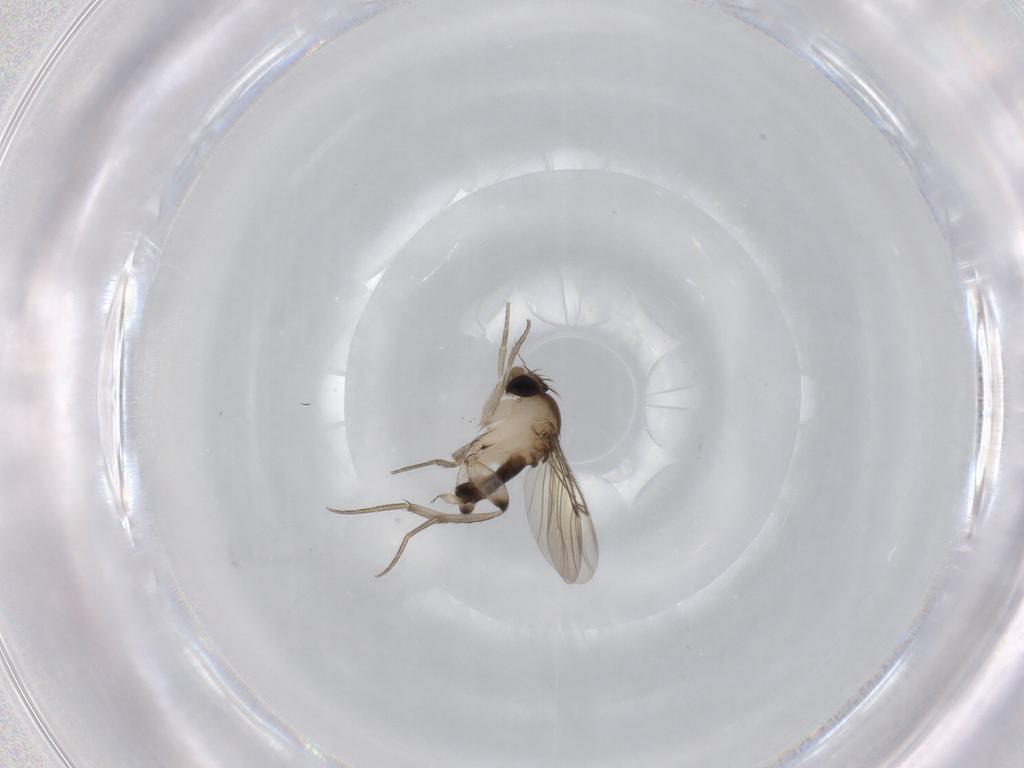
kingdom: Animalia
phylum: Arthropoda
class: Insecta
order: Diptera
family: Phoridae
